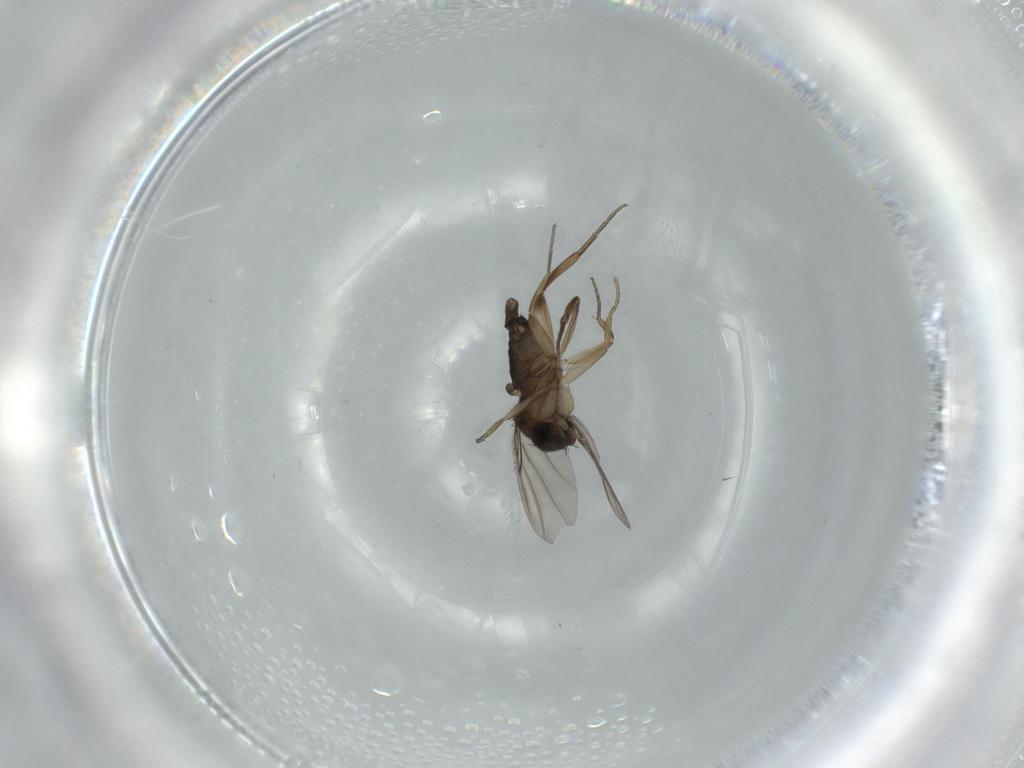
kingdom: Animalia
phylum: Arthropoda
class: Insecta
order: Diptera
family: Phoridae
